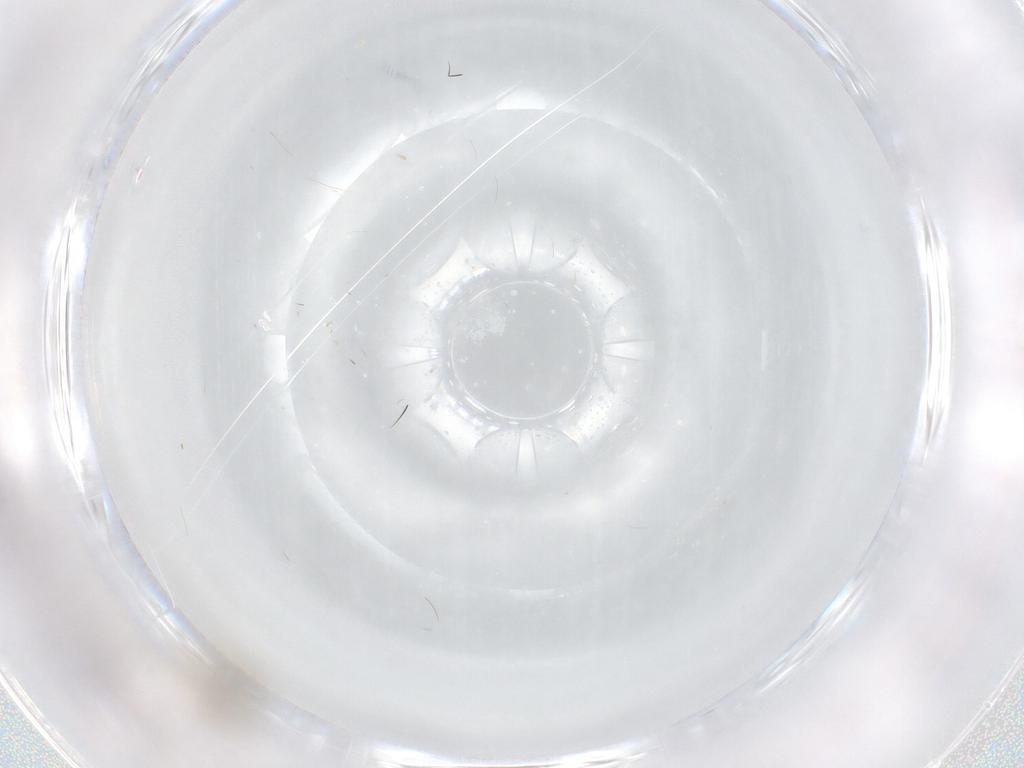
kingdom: Animalia
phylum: Arthropoda
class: Insecta
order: Diptera
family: Chironomidae
